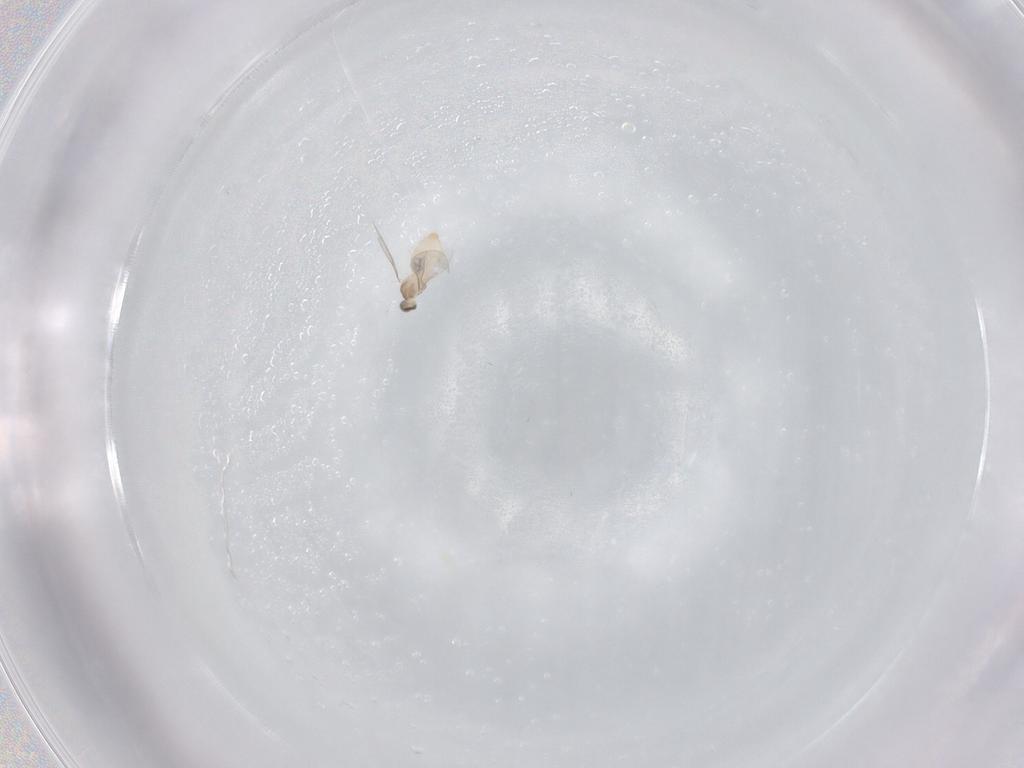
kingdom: Animalia
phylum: Arthropoda
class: Insecta
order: Diptera
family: Cecidomyiidae
